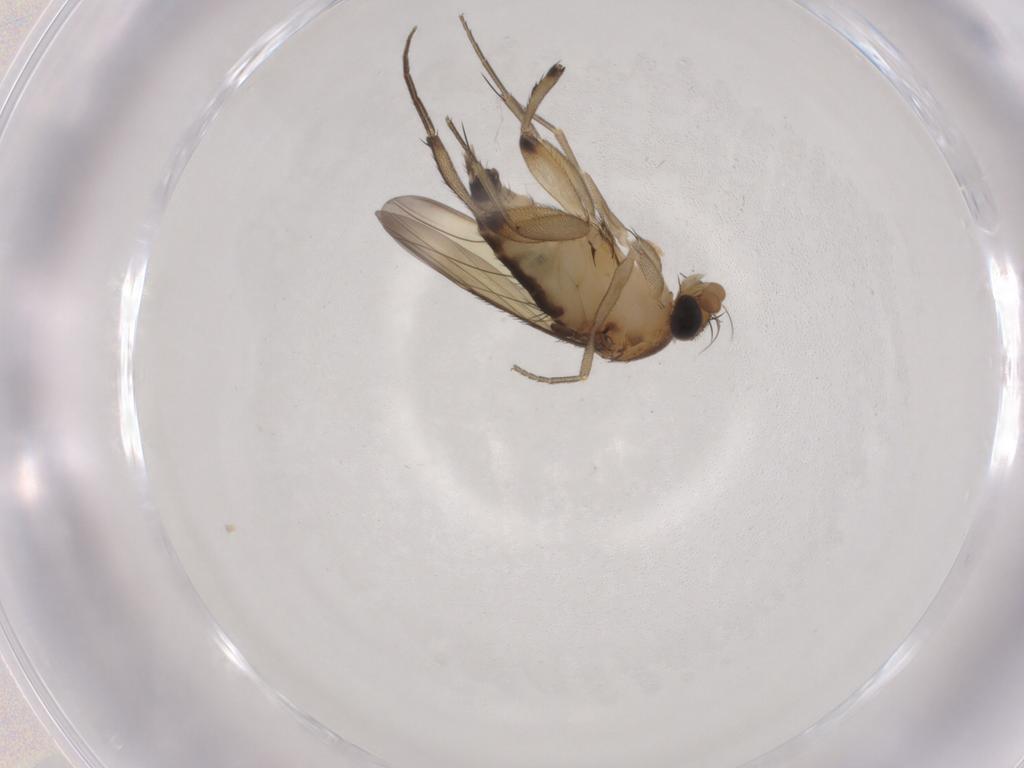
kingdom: Animalia
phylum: Arthropoda
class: Insecta
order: Diptera
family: Phoridae
